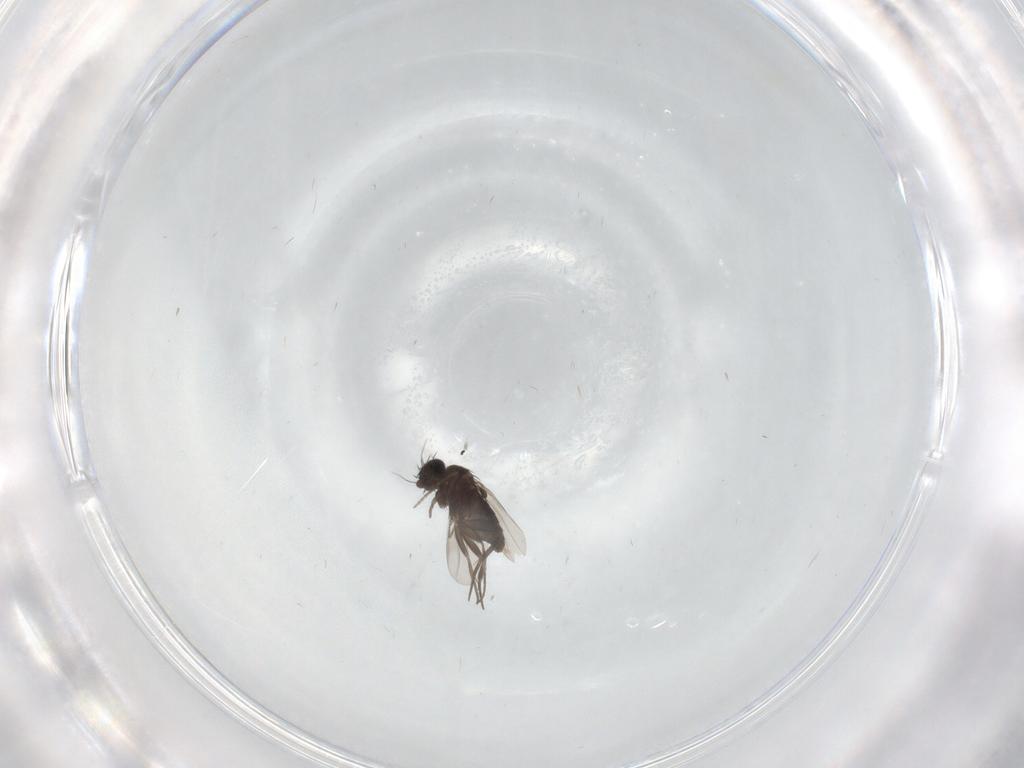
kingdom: Animalia
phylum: Arthropoda
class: Insecta
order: Diptera
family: Phoridae
